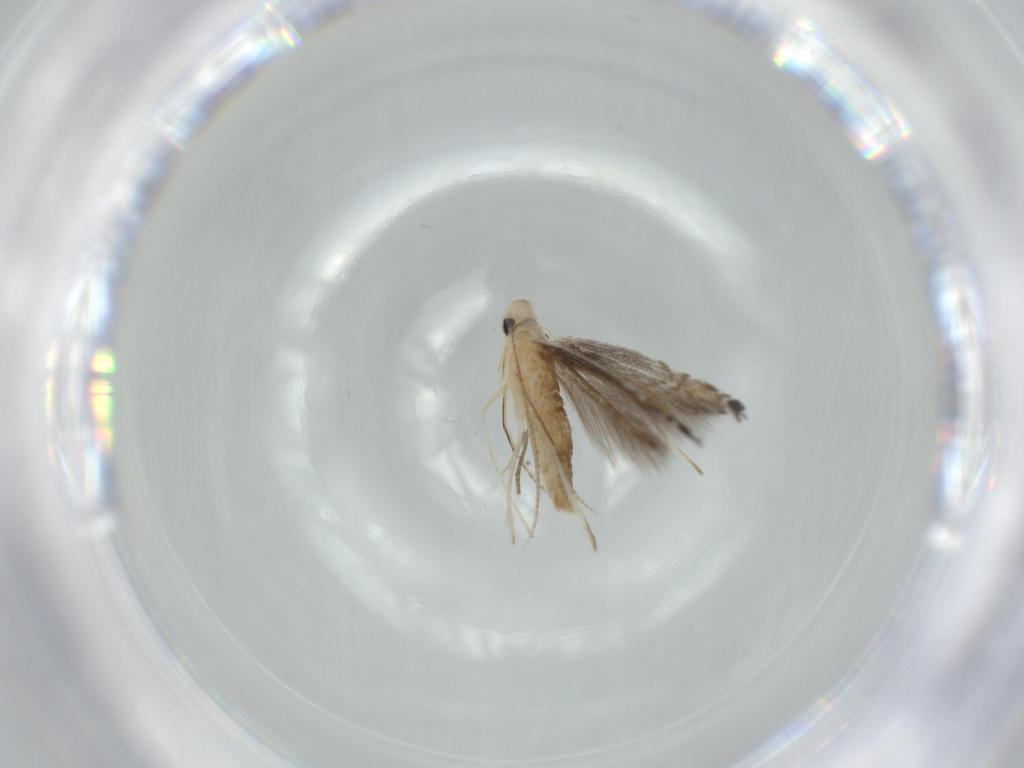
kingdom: Animalia
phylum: Arthropoda
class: Insecta
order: Lepidoptera
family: Gracillariidae
